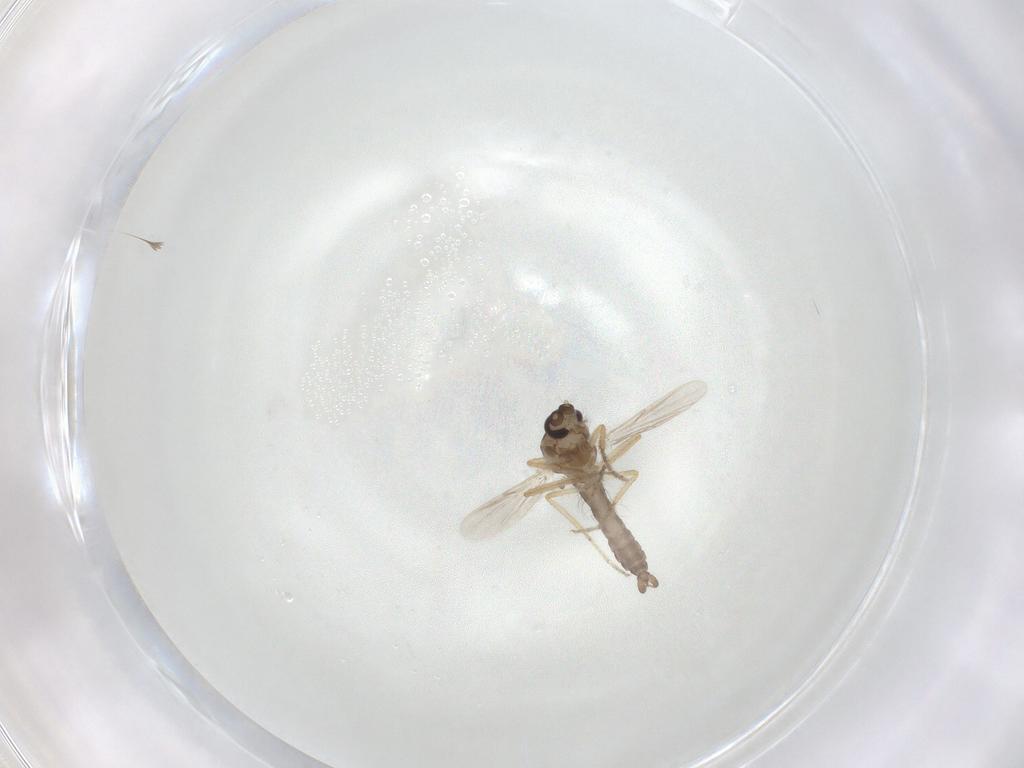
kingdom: Animalia
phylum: Arthropoda
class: Insecta
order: Diptera
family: Ceratopogonidae
